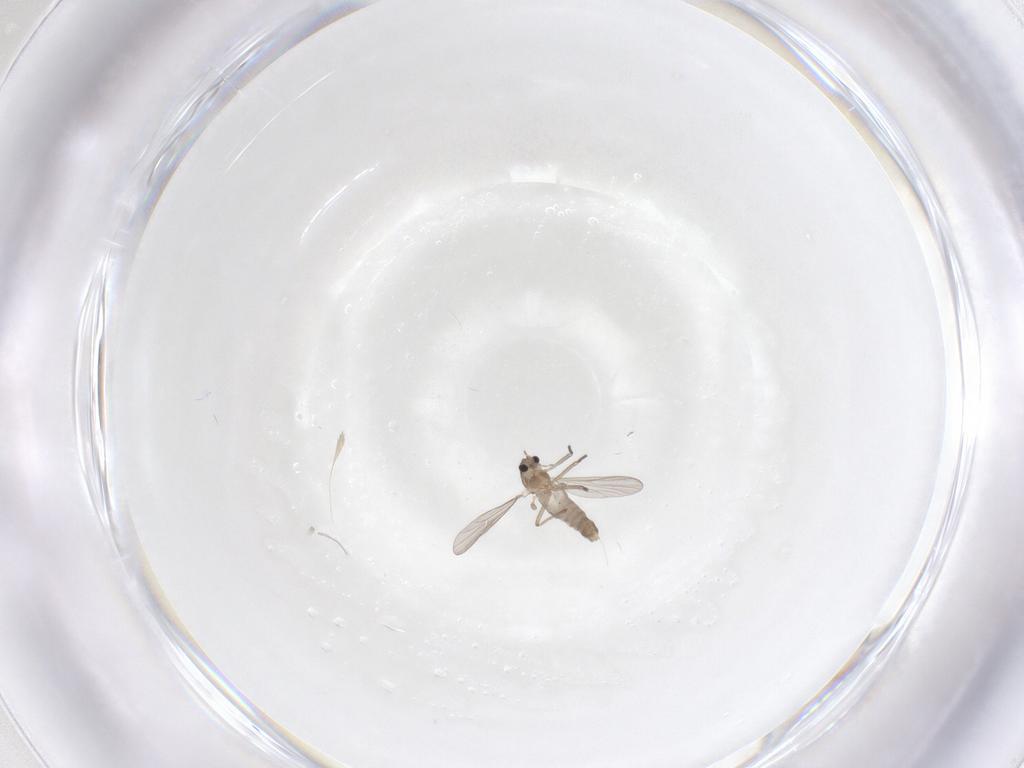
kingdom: Animalia
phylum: Arthropoda
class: Insecta
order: Diptera
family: Chironomidae
